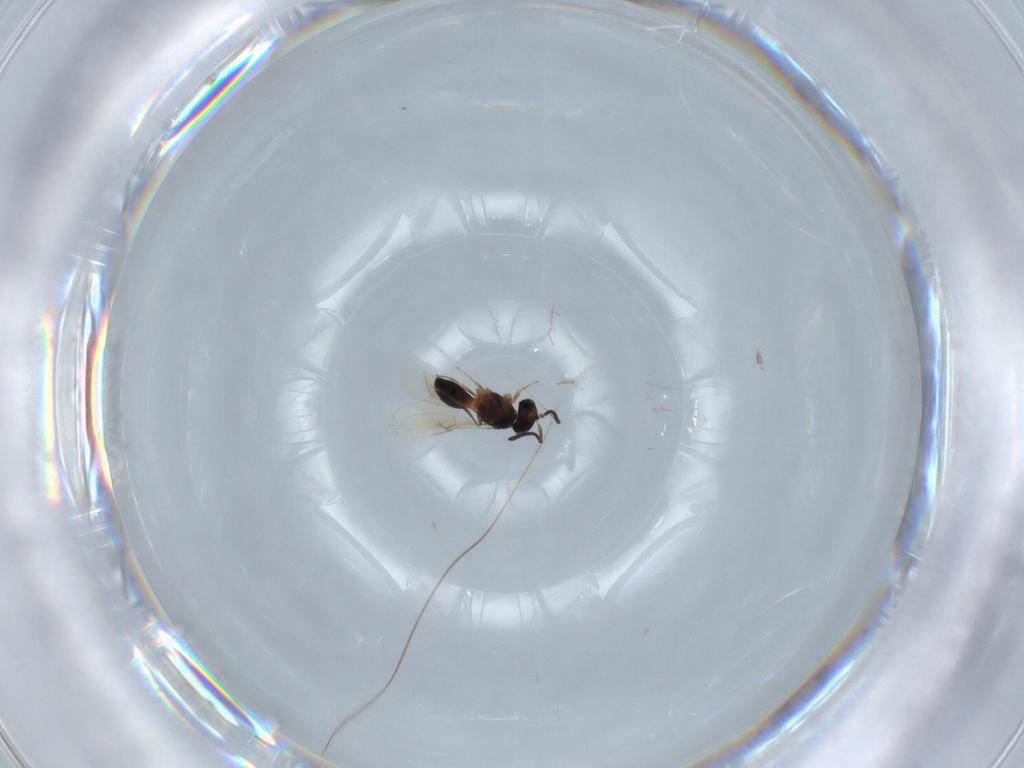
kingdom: Animalia
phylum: Arthropoda
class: Insecta
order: Hymenoptera
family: Scelionidae
